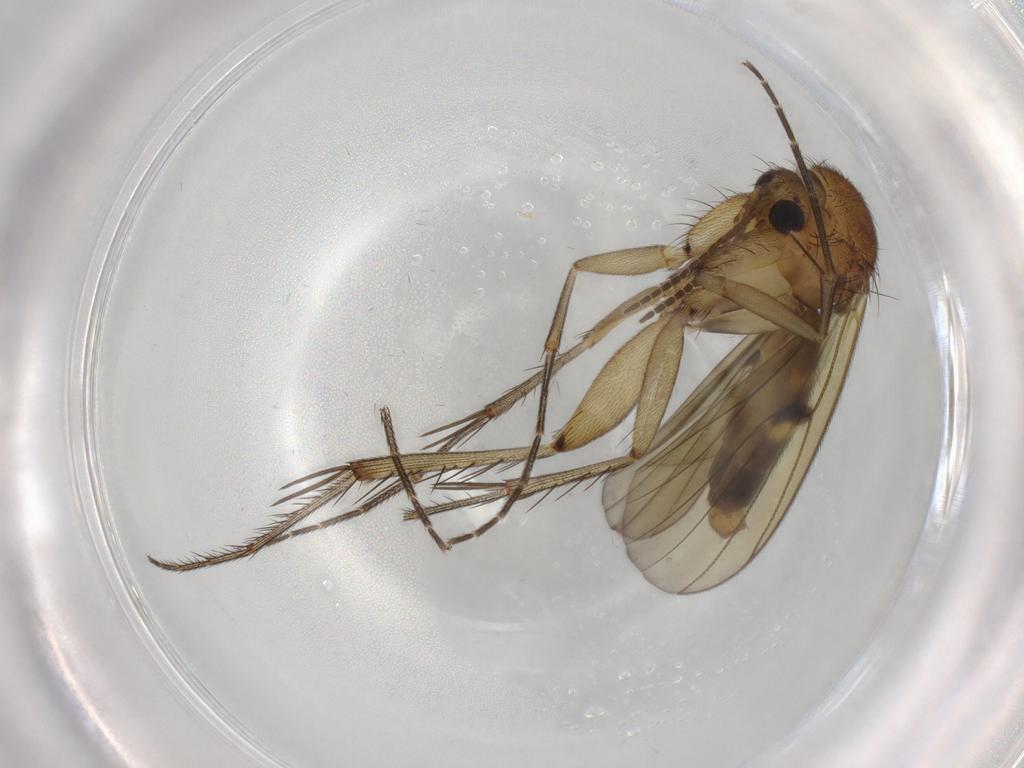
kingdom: Animalia
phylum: Arthropoda
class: Insecta
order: Diptera
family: Mycetophilidae
